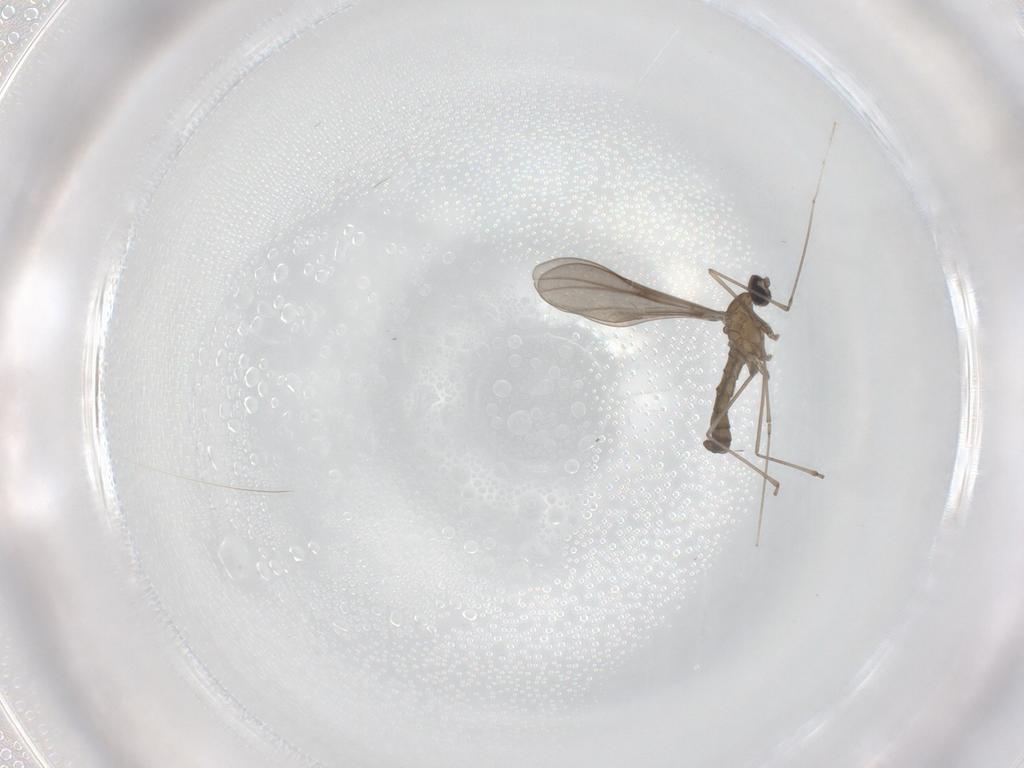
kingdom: Animalia
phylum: Arthropoda
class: Insecta
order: Diptera
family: Cecidomyiidae
